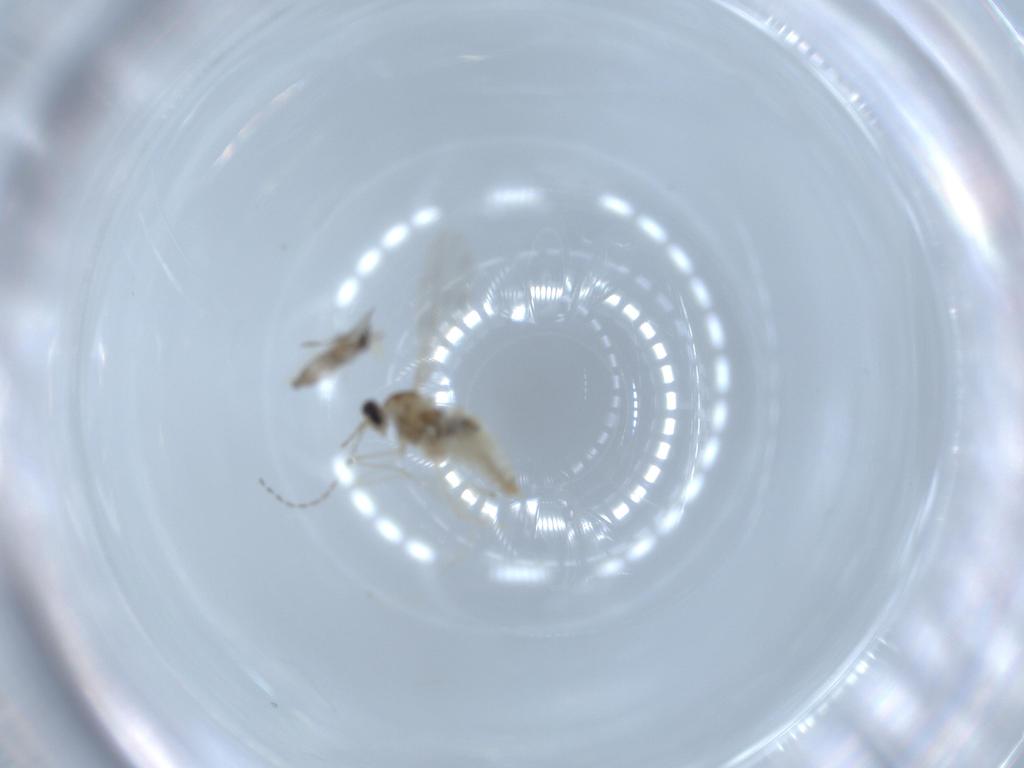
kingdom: Animalia
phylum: Arthropoda
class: Insecta
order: Diptera
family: Cecidomyiidae
